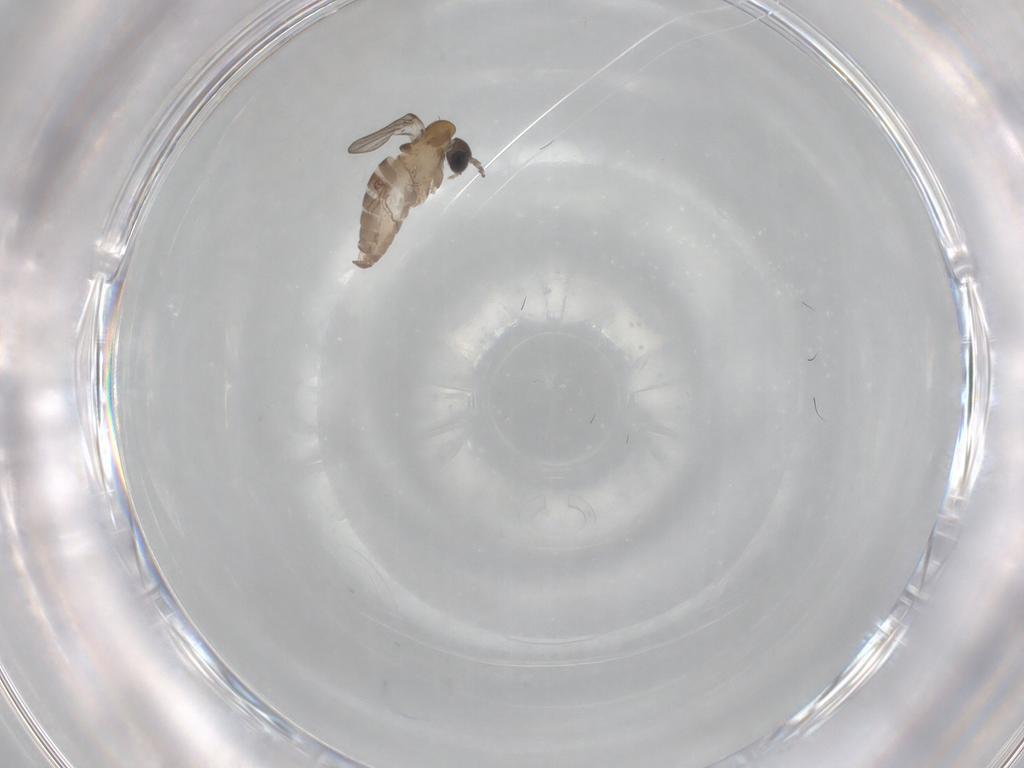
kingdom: Animalia
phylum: Arthropoda
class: Insecta
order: Diptera
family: Psychodidae
